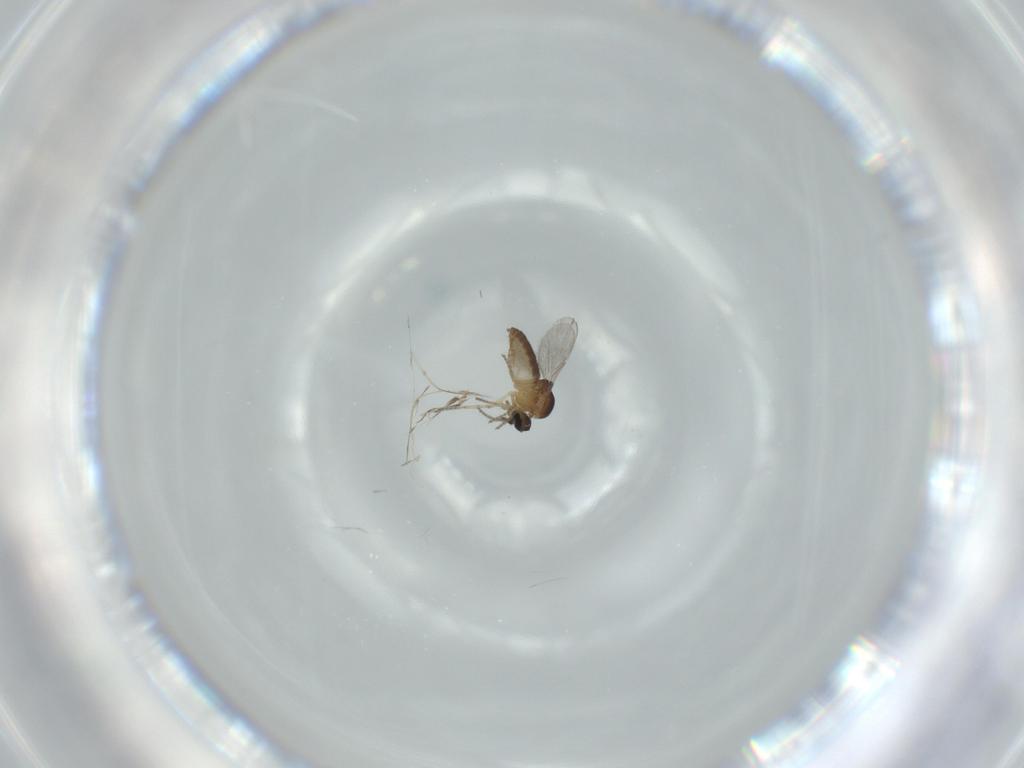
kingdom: Animalia
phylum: Arthropoda
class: Insecta
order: Diptera
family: Ceratopogonidae
